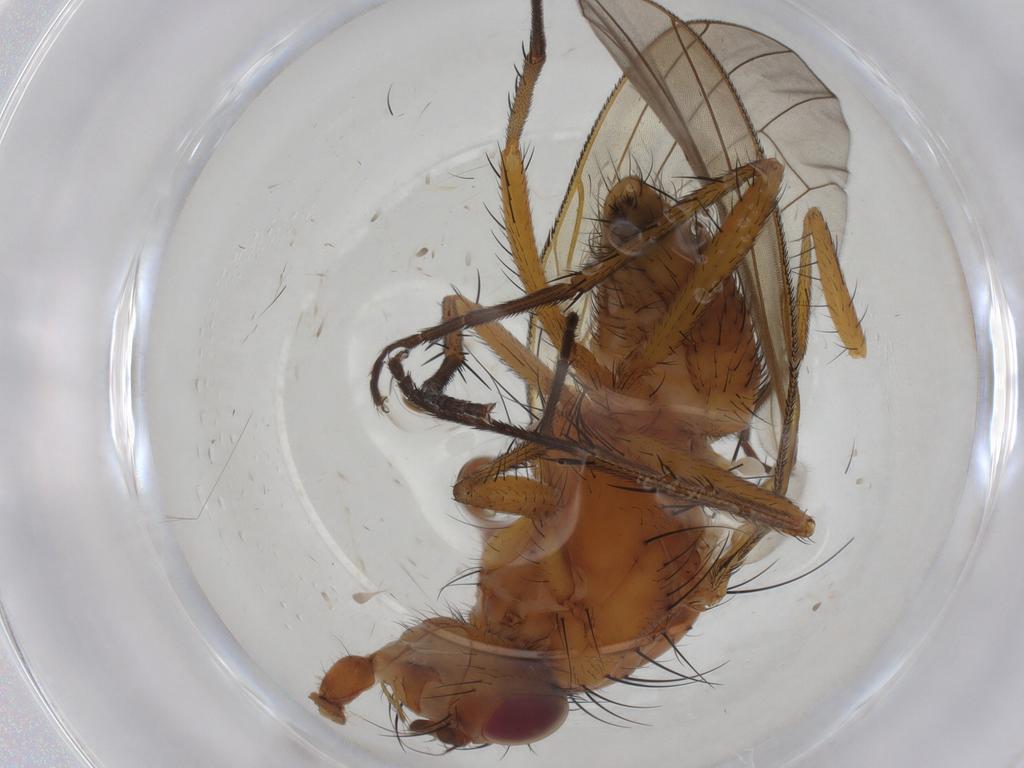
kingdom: Animalia
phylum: Arthropoda
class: Insecta
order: Diptera
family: Anthomyiidae
